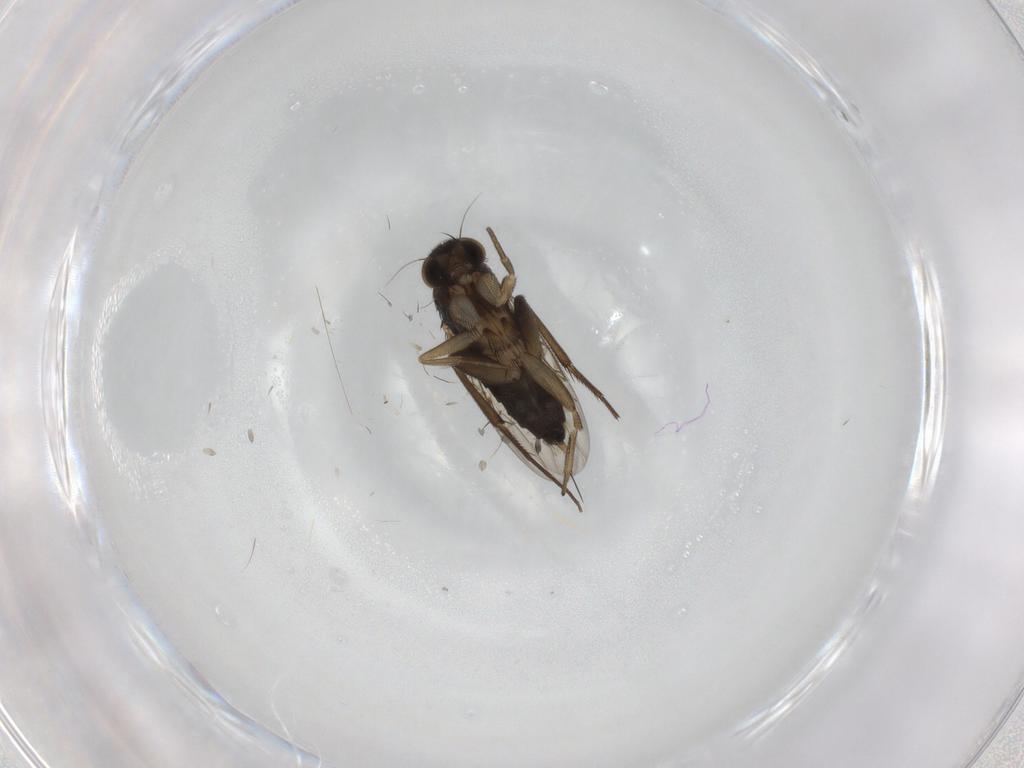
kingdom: Animalia
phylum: Arthropoda
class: Insecta
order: Diptera
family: Phoridae
